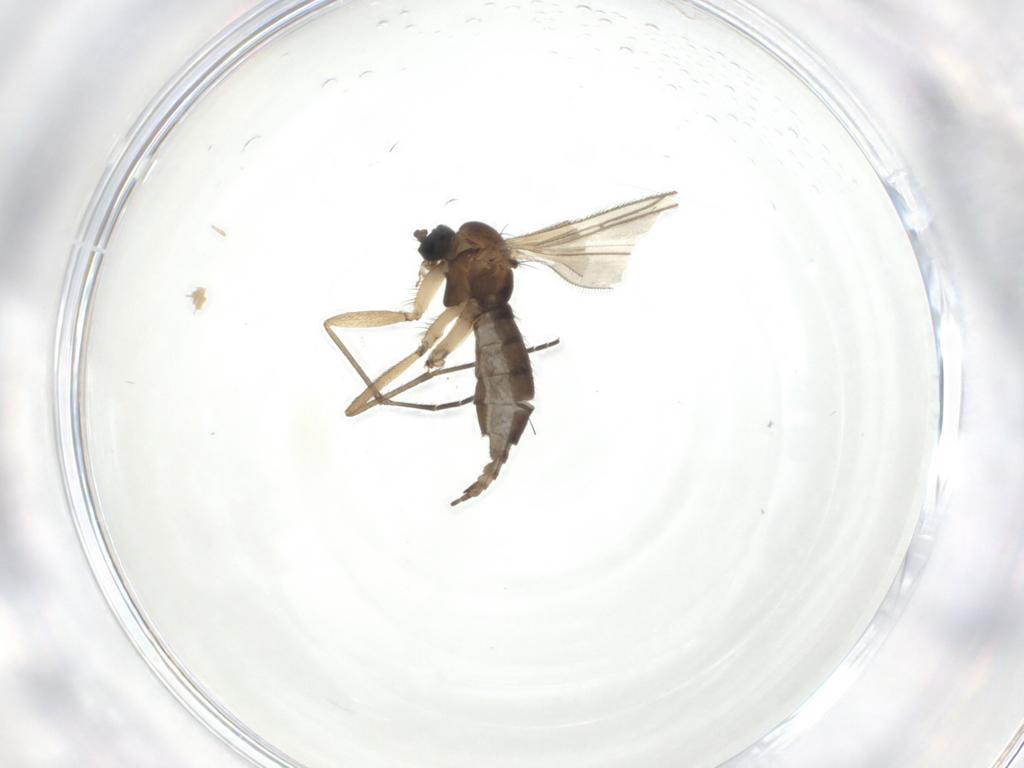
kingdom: Animalia
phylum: Arthropoda
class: Insecta
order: Diptera
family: Sciaridae
